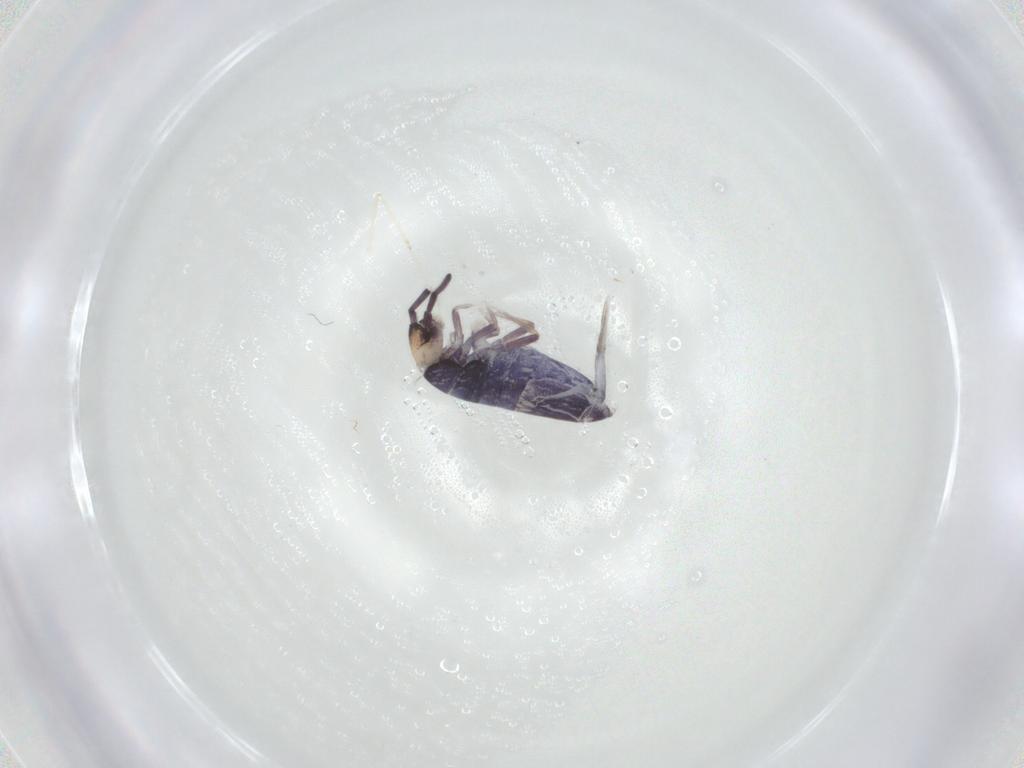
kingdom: Animalia
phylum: Arthropoda
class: Collembola
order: Entomobryomorpha
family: Entomobryidae
